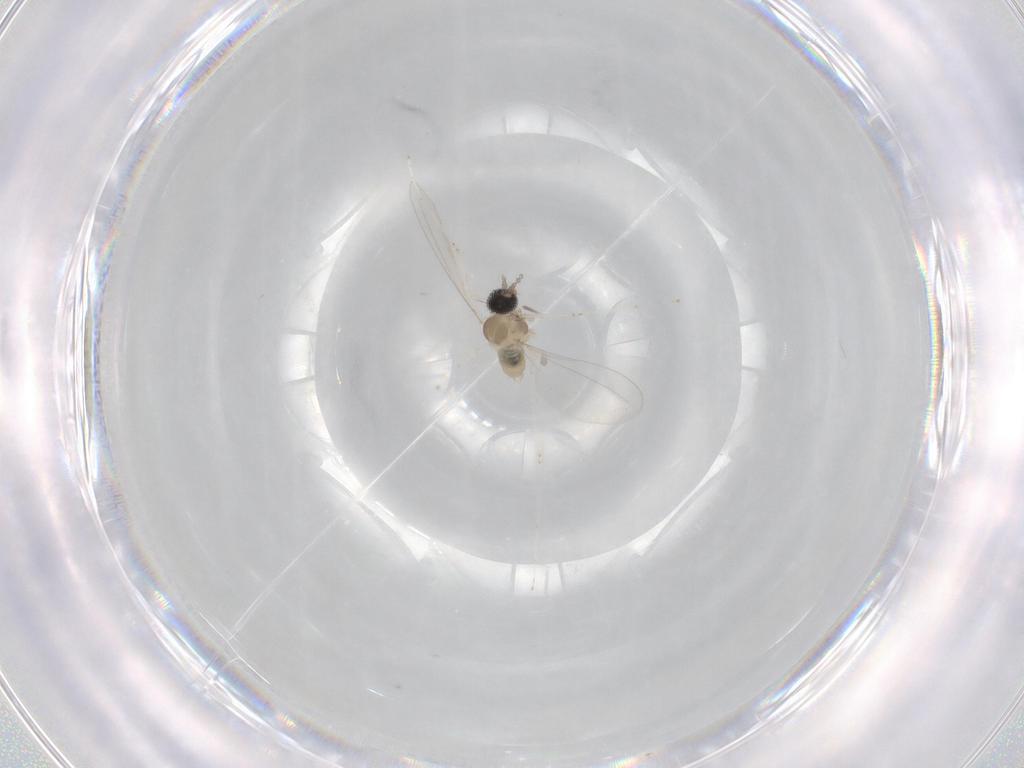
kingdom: Animalia
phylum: Arthropoda
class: Insecta
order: Diptera
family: Cecidomyiidae
